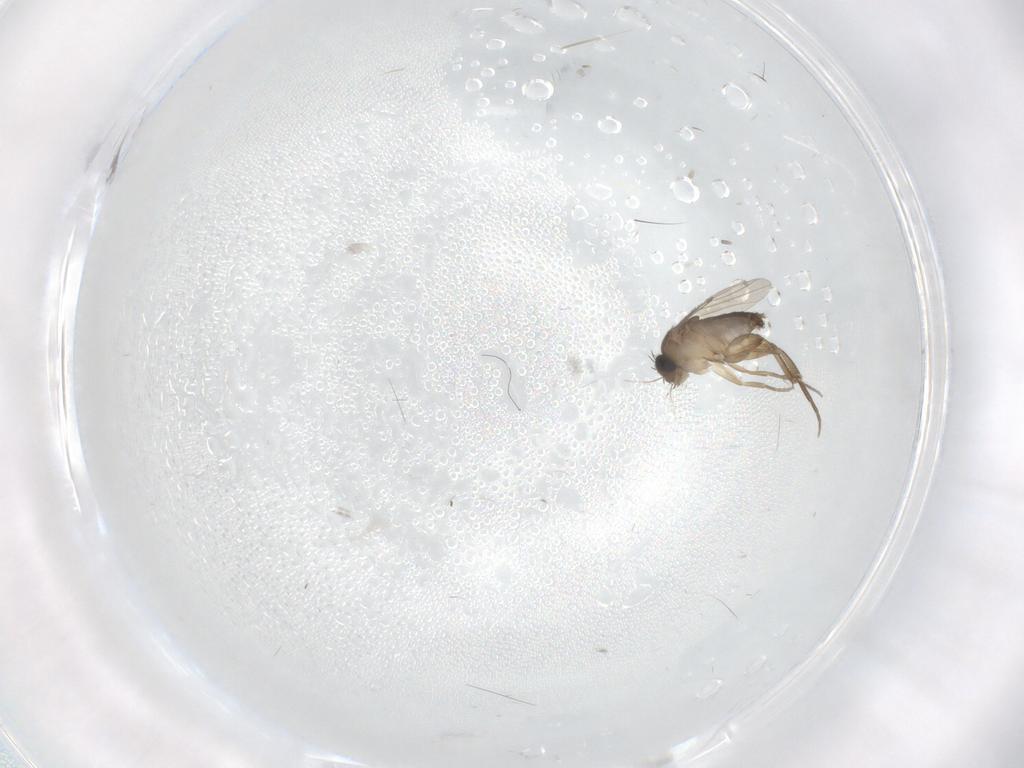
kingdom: Animalia
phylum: Arthropoda
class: Insecta
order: Diptera
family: Phoridae
